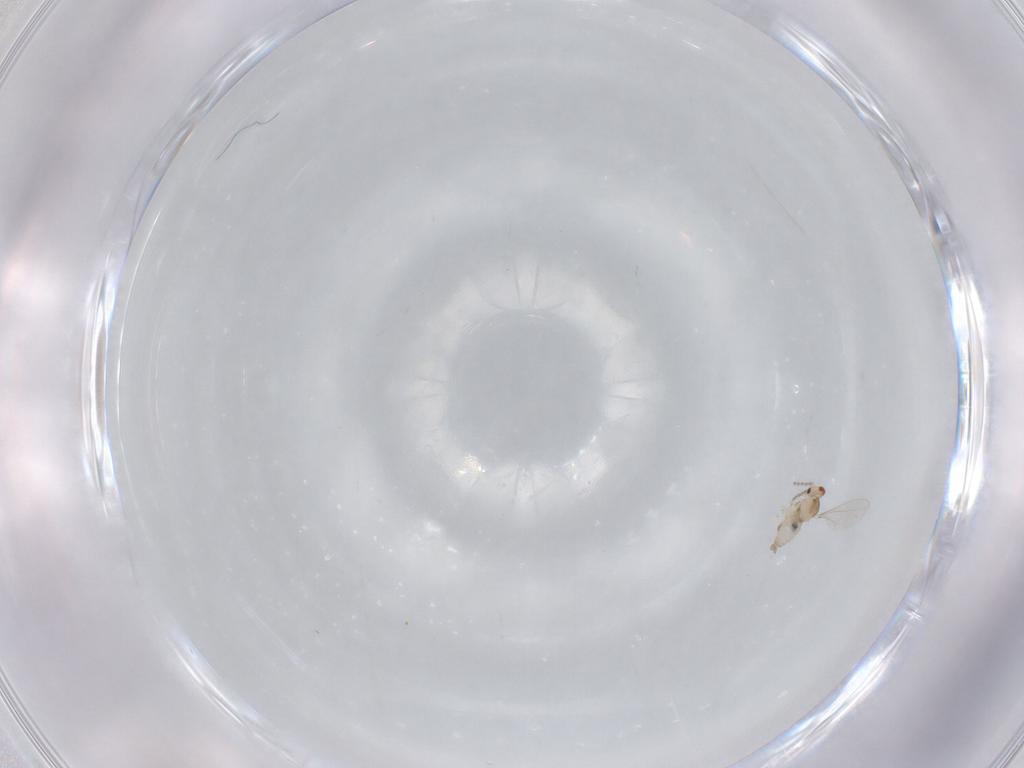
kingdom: Animalia
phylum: Arthropoda
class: Insecta
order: Diptera
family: Cecidomyiidae
